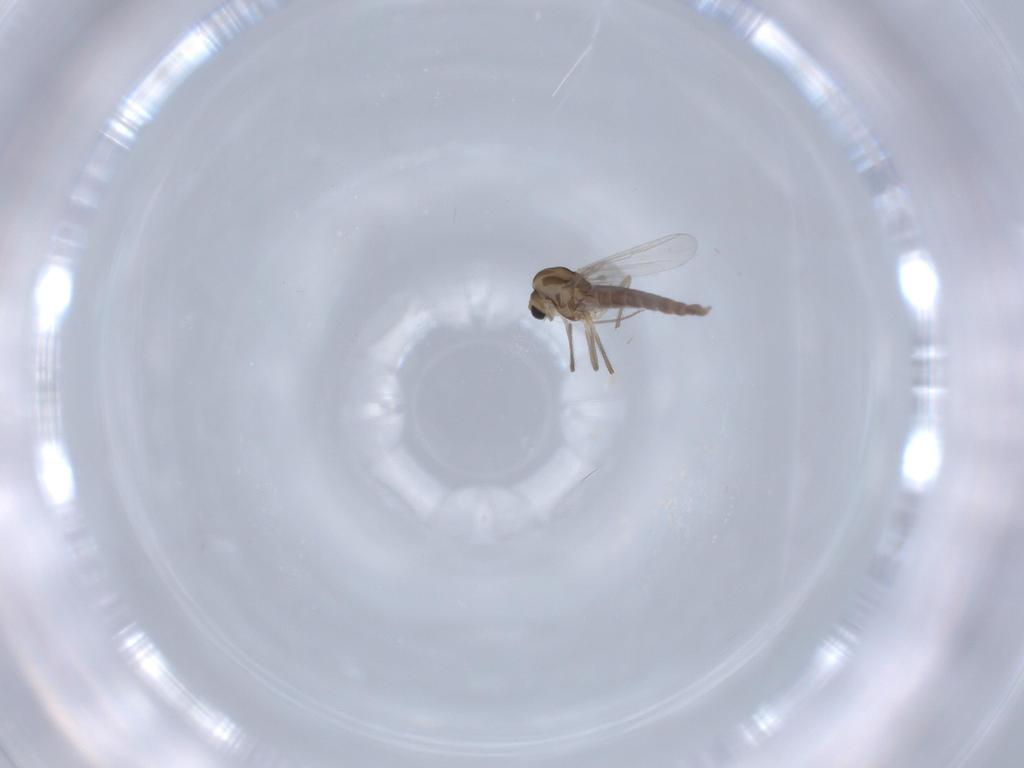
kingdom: Animalia
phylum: Arthropoda
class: Insecta
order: Diptera
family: Chironomidae
